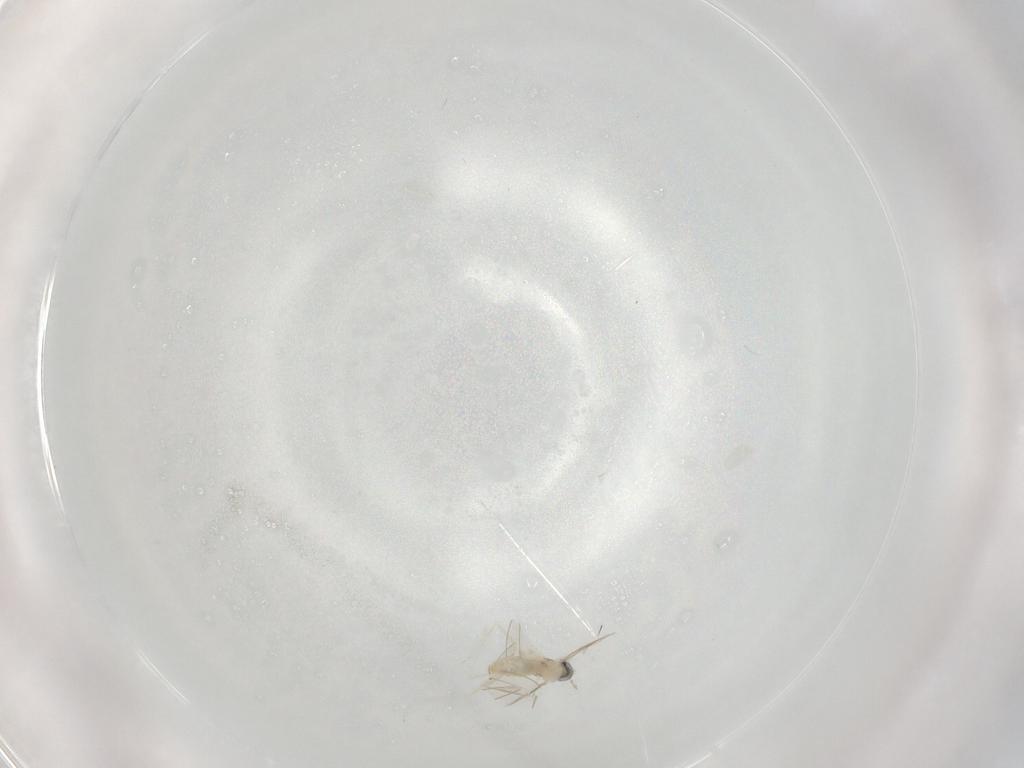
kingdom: Animalia
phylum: Arthropoda
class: Insecta
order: Diptera
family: Cecidomyiidae
